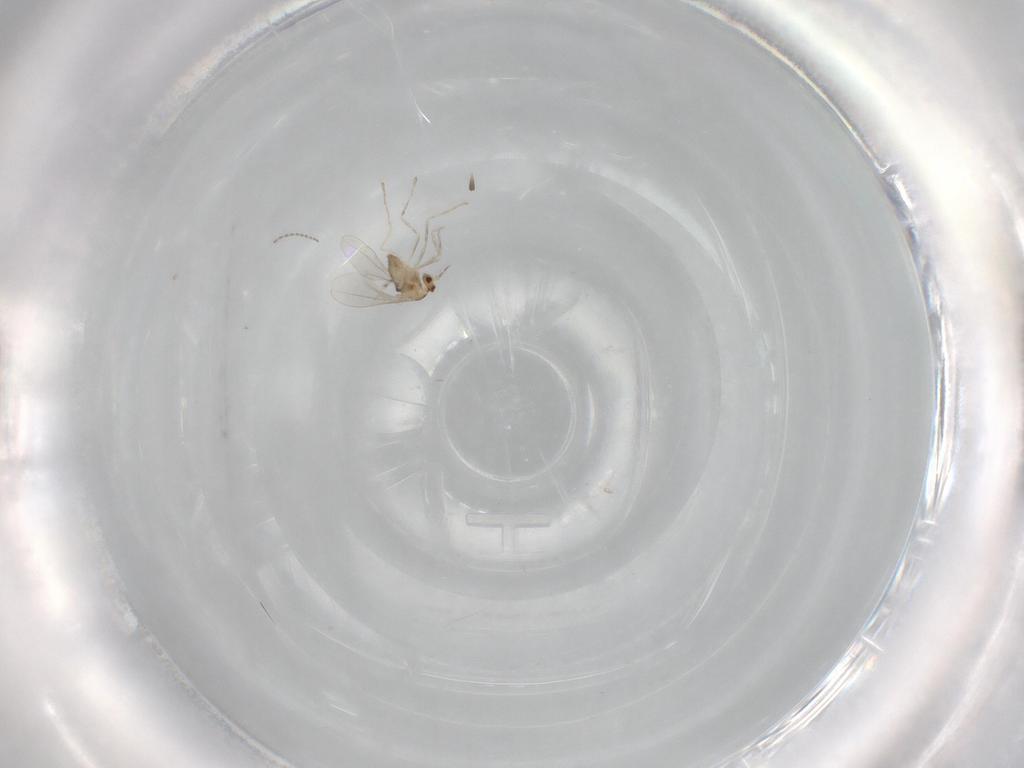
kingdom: Animalia
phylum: Arthropoda
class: Insecta
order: Diptera
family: Cecidomyiidae
